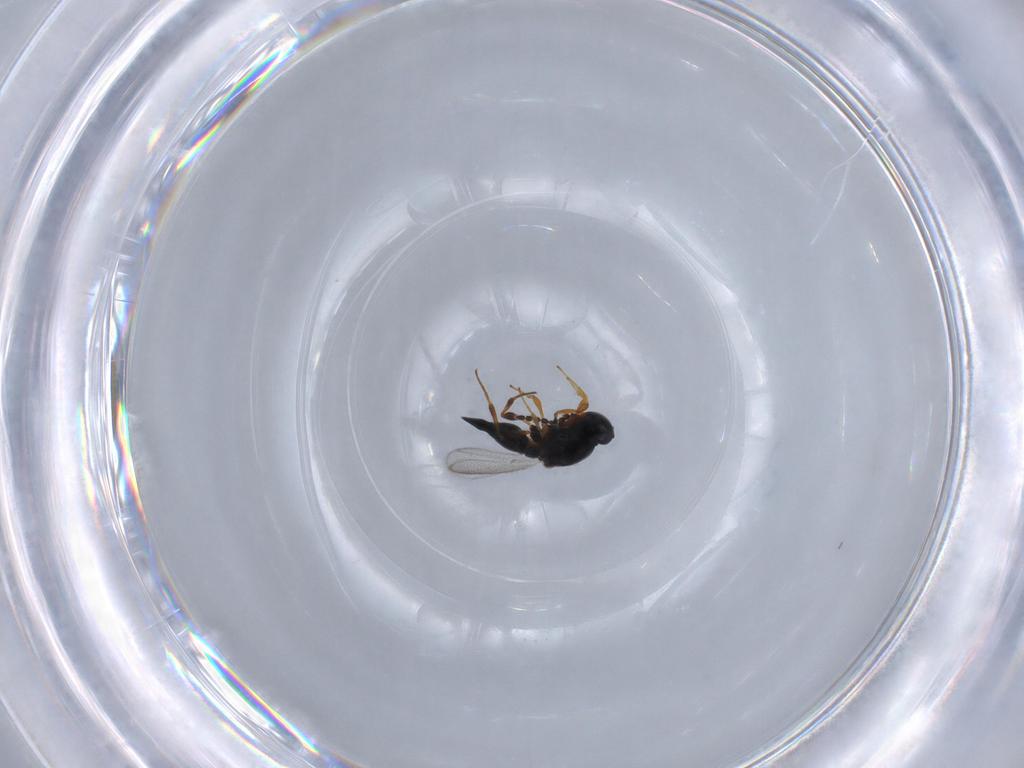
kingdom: Animalia
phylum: Arthropoda
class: Insecta
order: Hymenoptera
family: Platygastridae
